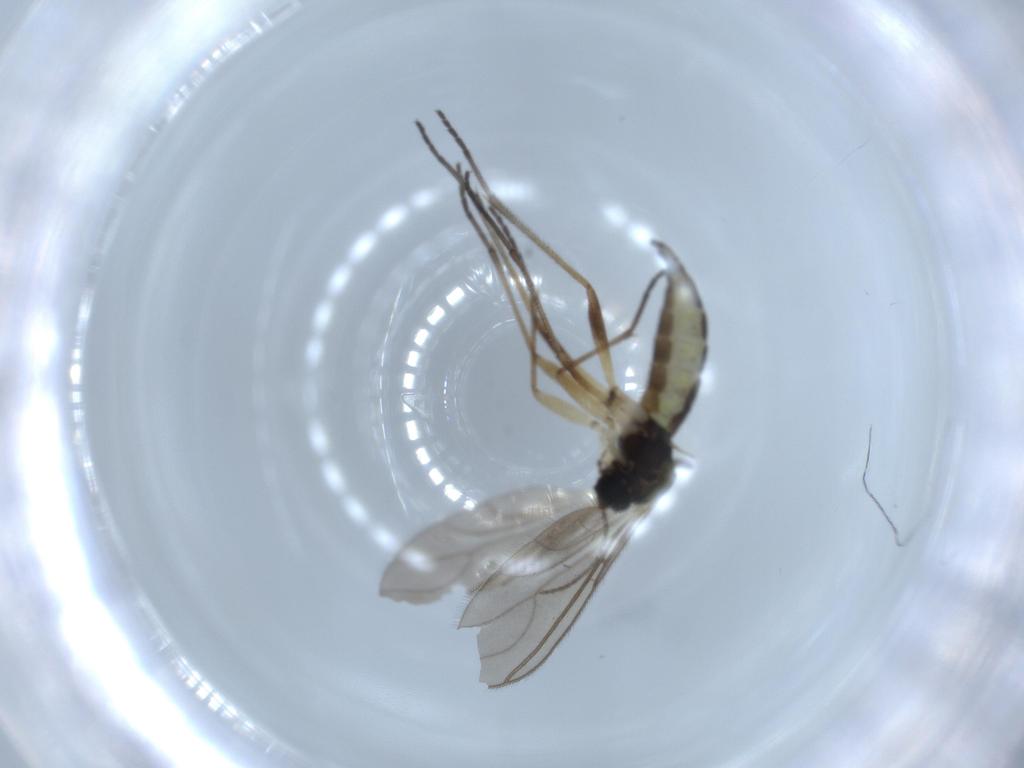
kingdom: Animalia
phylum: Arthropoda
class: Insecta
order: Diptera
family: Sciaridae
